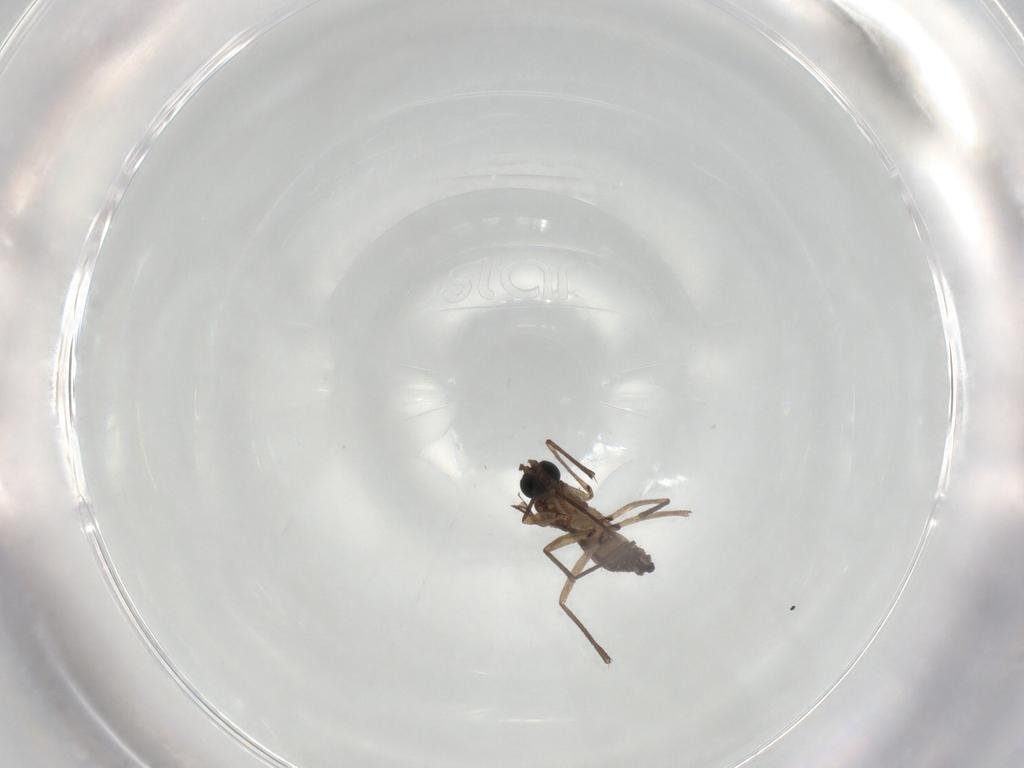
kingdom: Animalia
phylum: Arthropoda
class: Insecta
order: Diptera
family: Sciaridae
